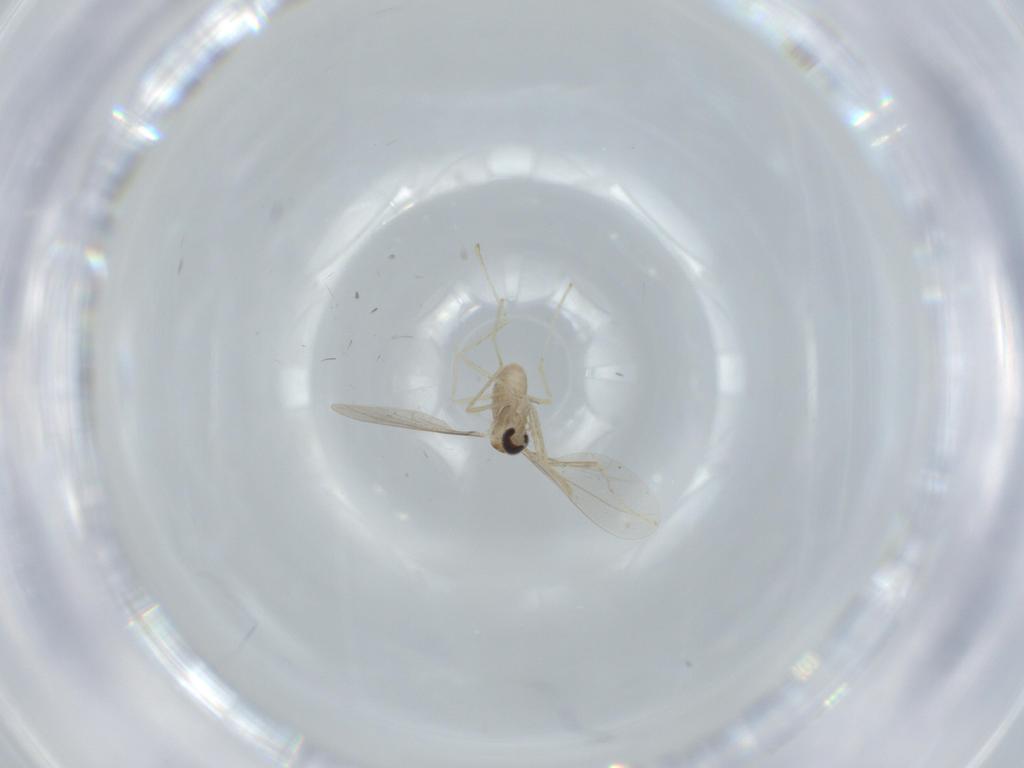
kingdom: Animalia
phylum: Arthropoda
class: Insecta
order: Diptera
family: Cecidomyiidae
